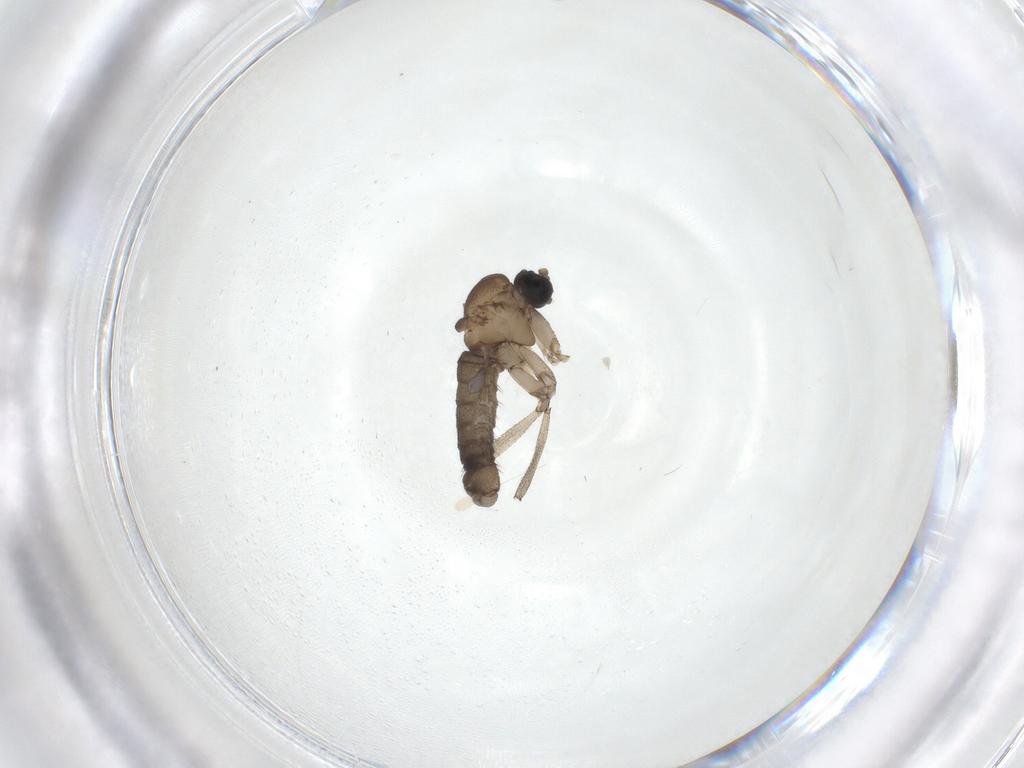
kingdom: Animalia
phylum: Arthropoda
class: Insecta
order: Diptera
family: Sciaridae
